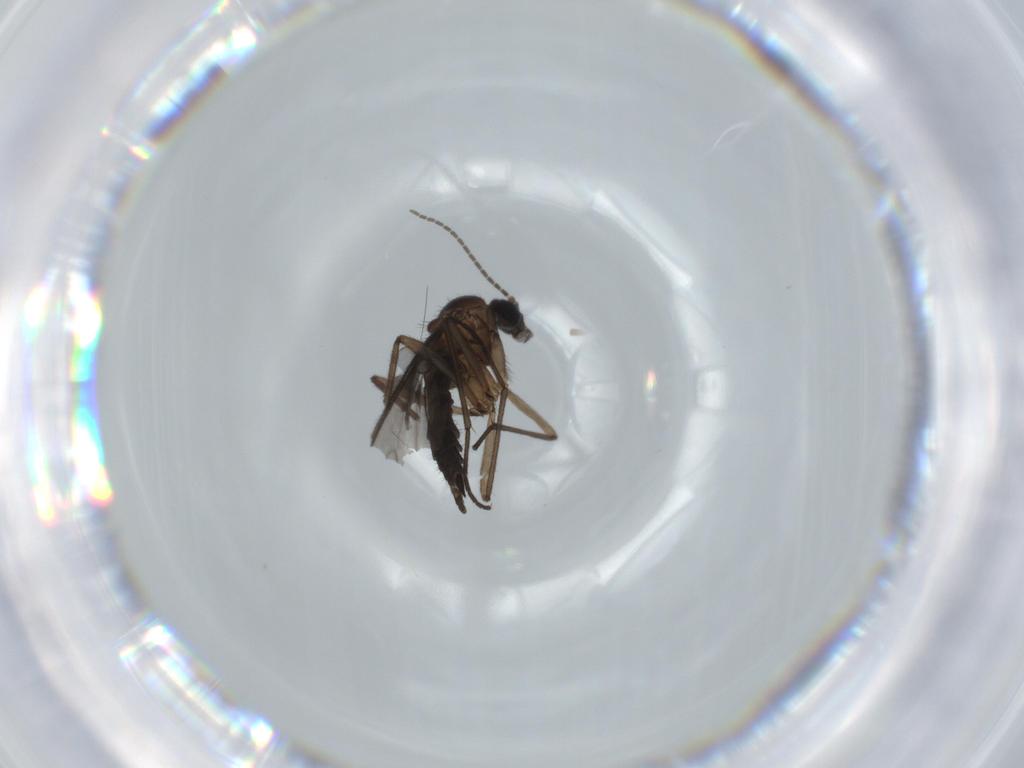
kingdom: Animalia
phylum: Arthropoda
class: Insecta
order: Diptera
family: Sciaridae
